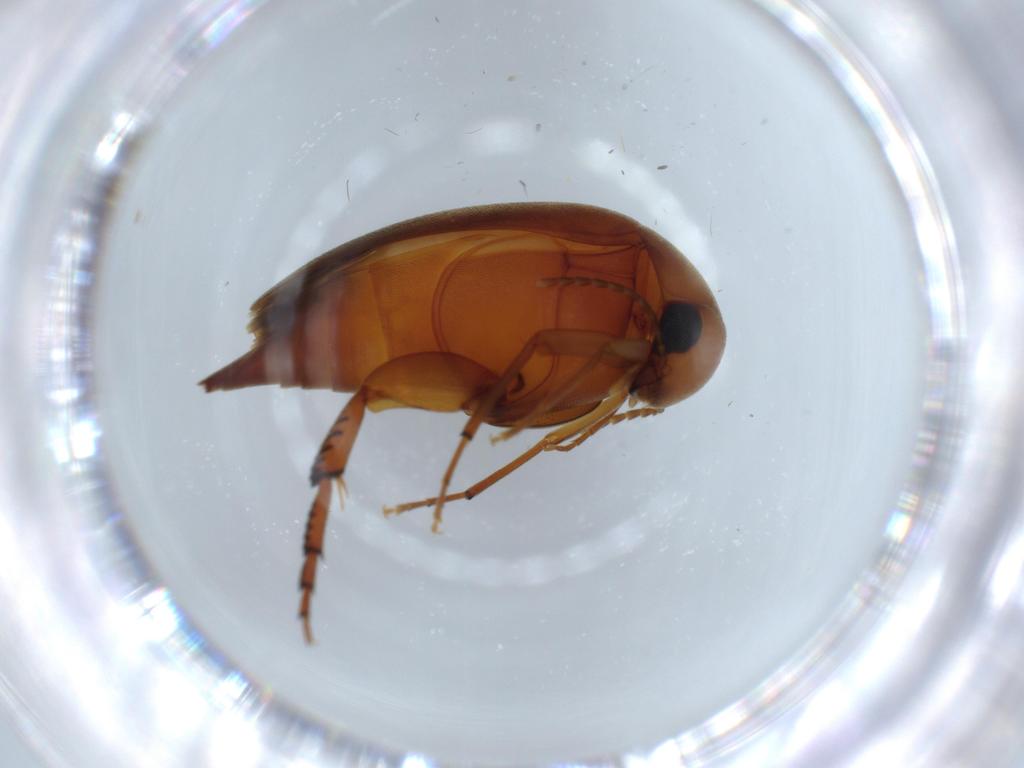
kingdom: Animalia
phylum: Arthropoda
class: Insecta
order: Coleoptera
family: Mordellidae
